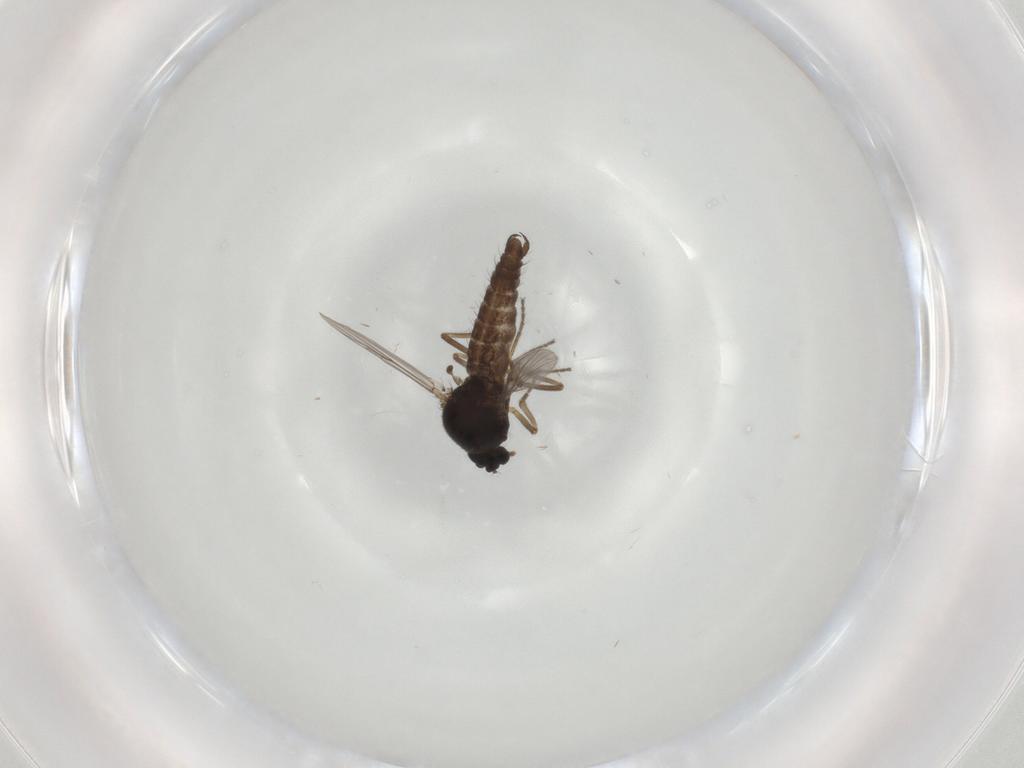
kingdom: Animalia
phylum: Arthropoda
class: Insecta
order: Diptera
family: Ceratopogonidae
